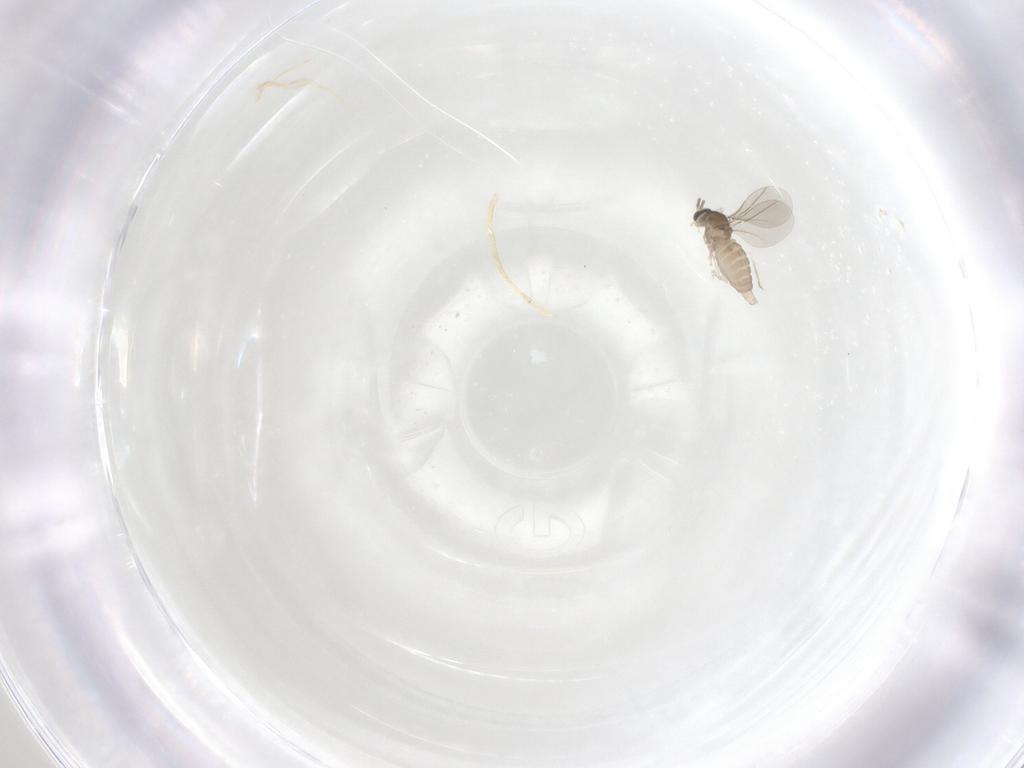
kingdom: Animalia
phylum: Arthropoda
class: Insecta
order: Diptera
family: Cecidomyiidae
